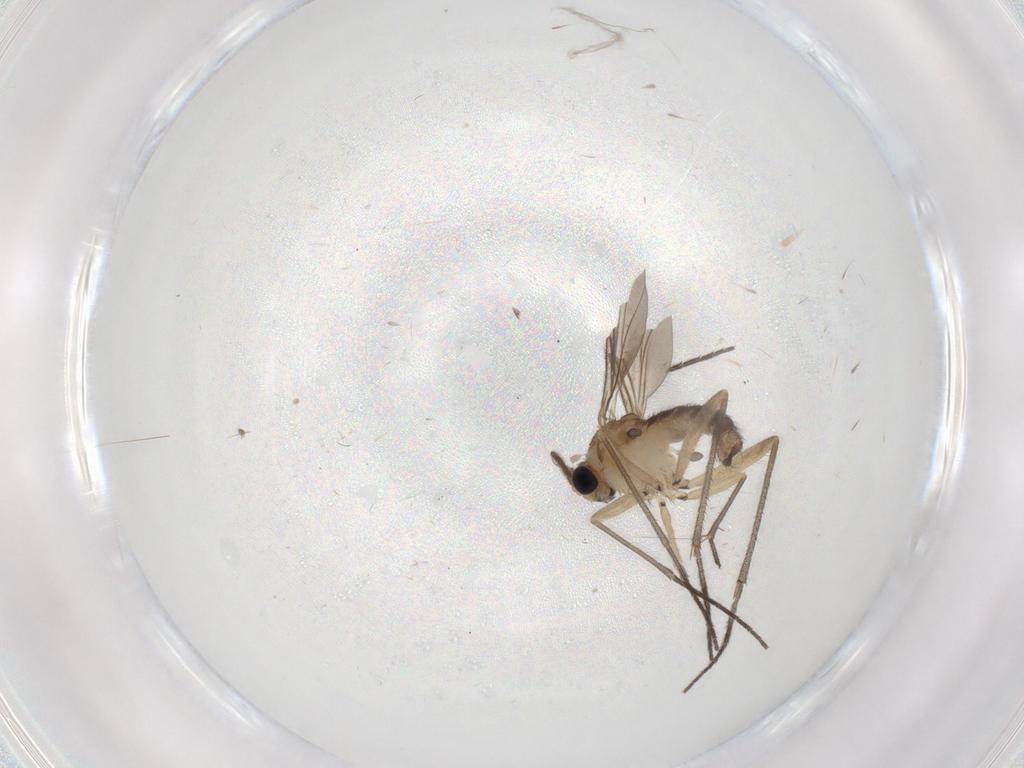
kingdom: Animalia
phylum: Arthropoda
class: Insecta
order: Diptera
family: Sciaridae
